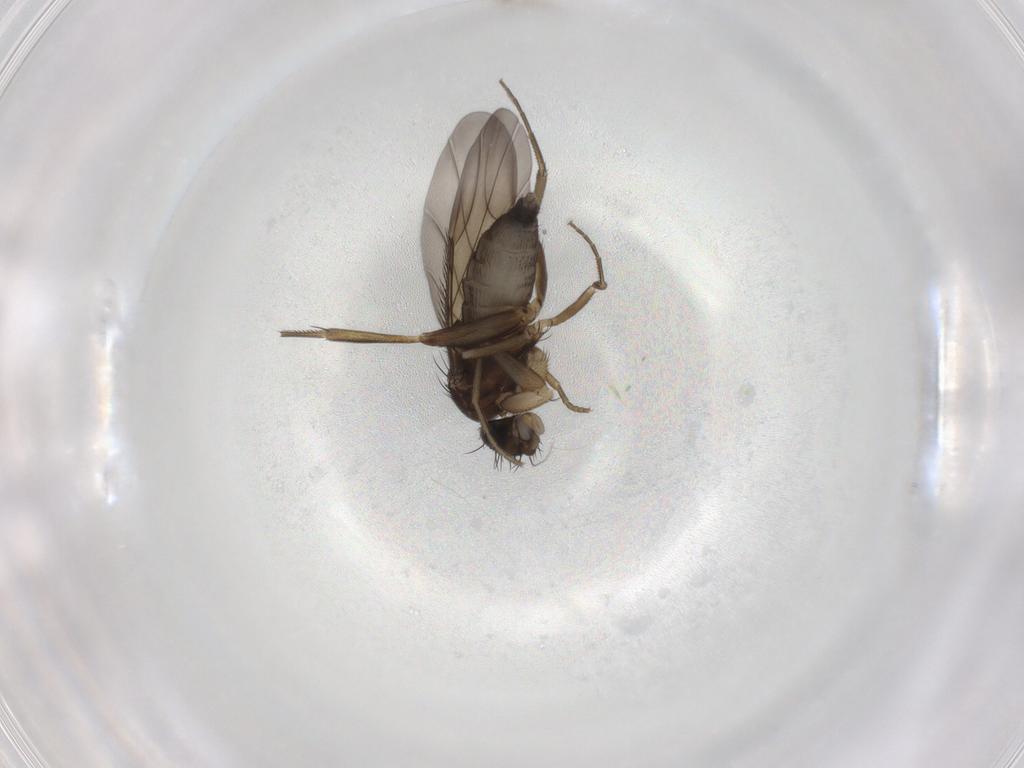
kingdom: Animalia
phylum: Arthropoda
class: Insecta
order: Diptera
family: Phoridae
